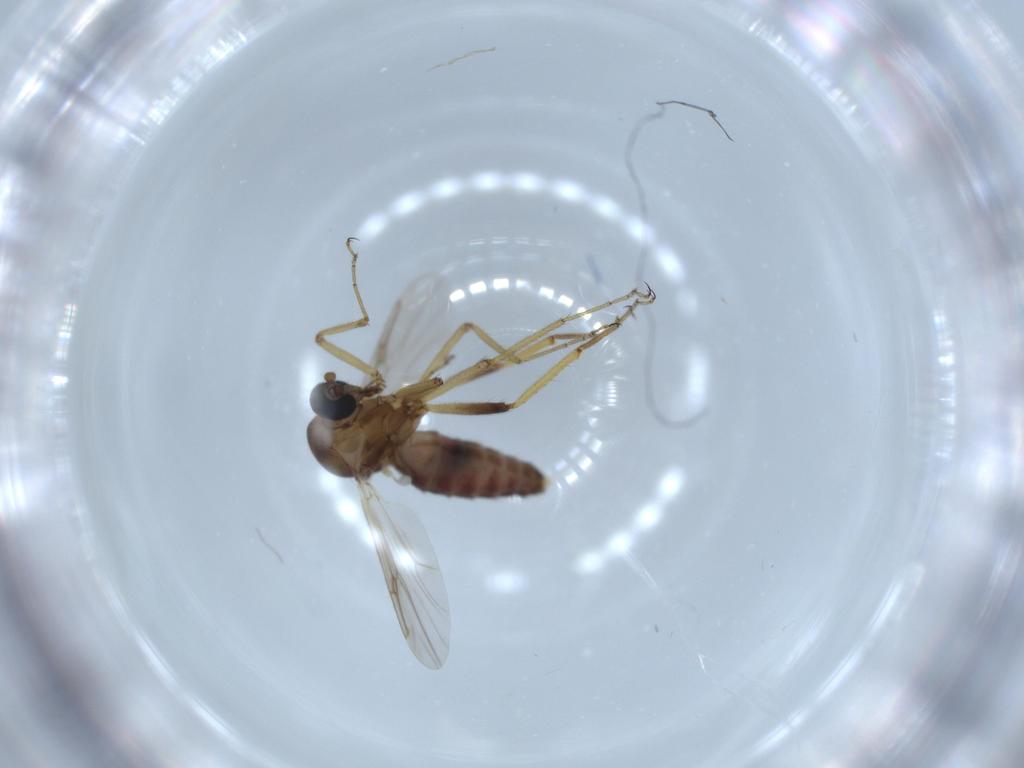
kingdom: Animalia
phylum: Arthropoda
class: Insecta
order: Diptera
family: Ceratopogonidae
